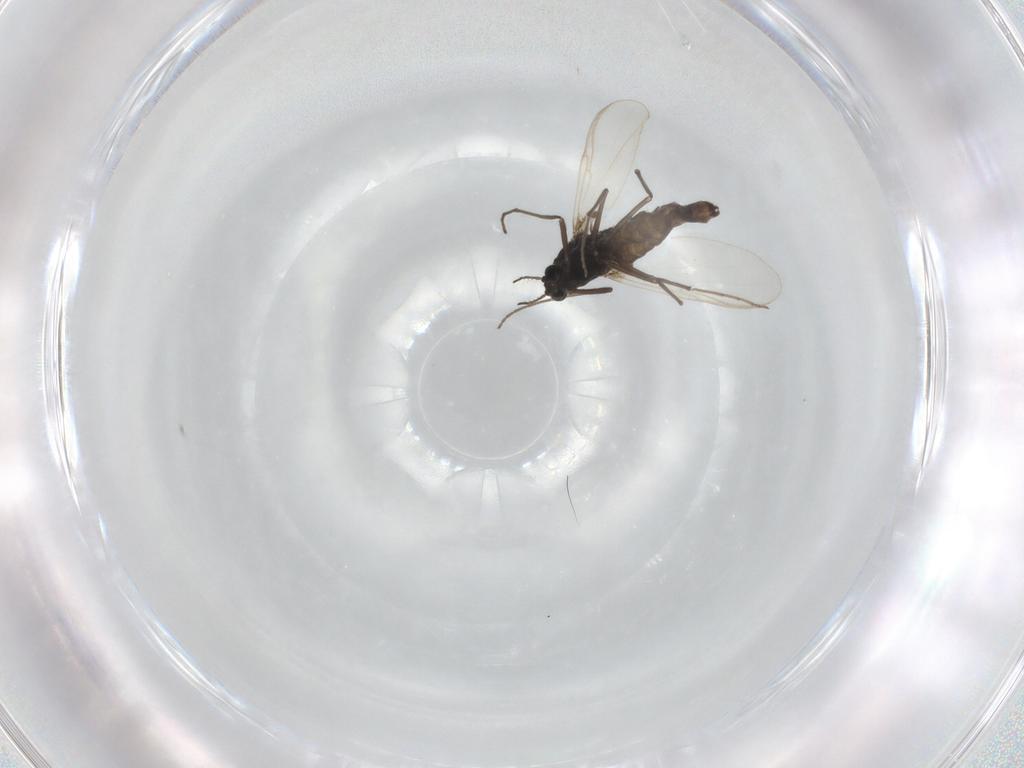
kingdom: Animalia
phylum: Arthropoda
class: Insecta
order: Diptera
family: Chironomidae
